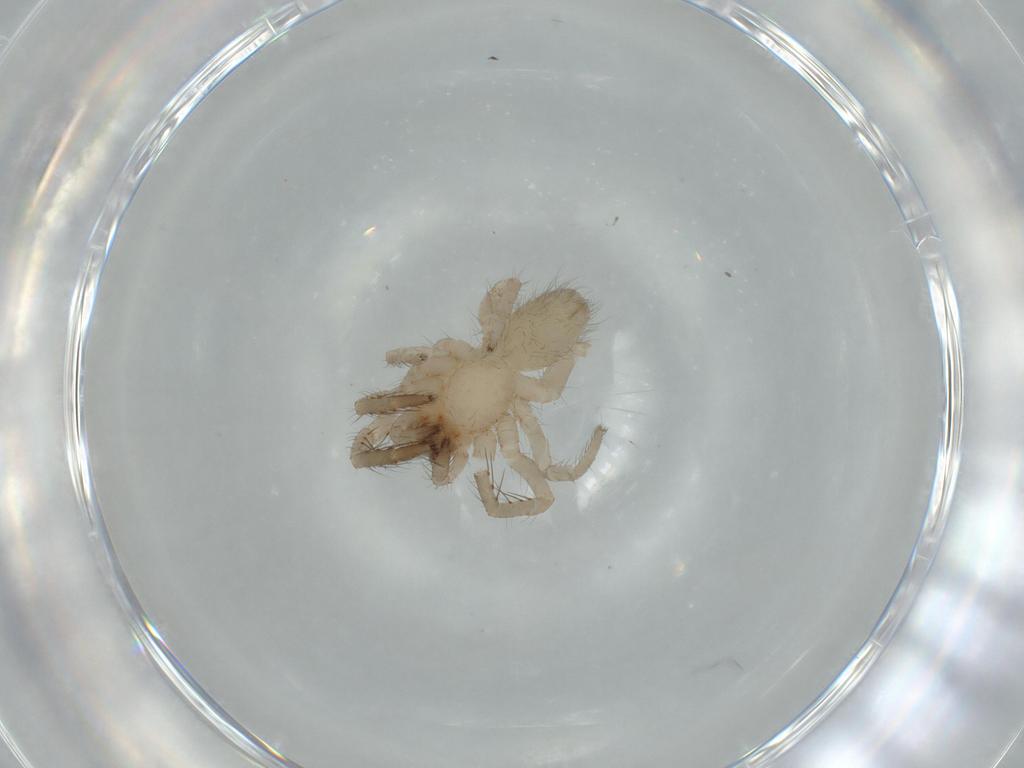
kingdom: Animalia
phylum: Arthropoda
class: Arachnida
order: Araneae
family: Segestriidae
